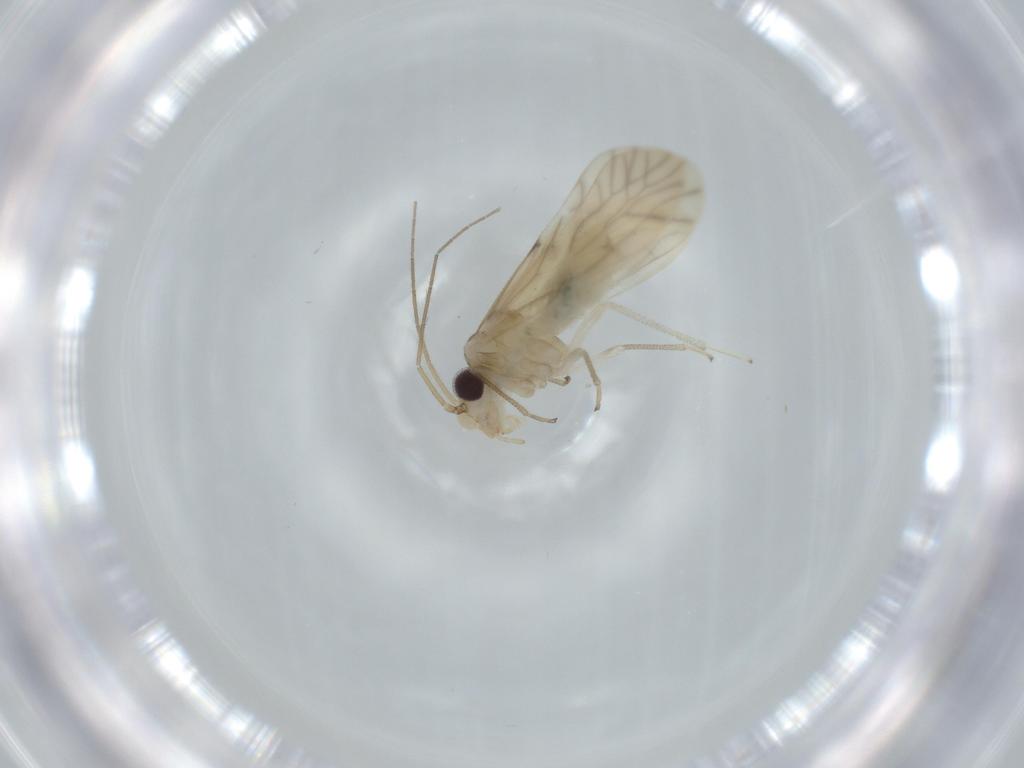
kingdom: Animalia
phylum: Arthropoda
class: Insecta
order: Psocodea
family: Caeciliusidae
